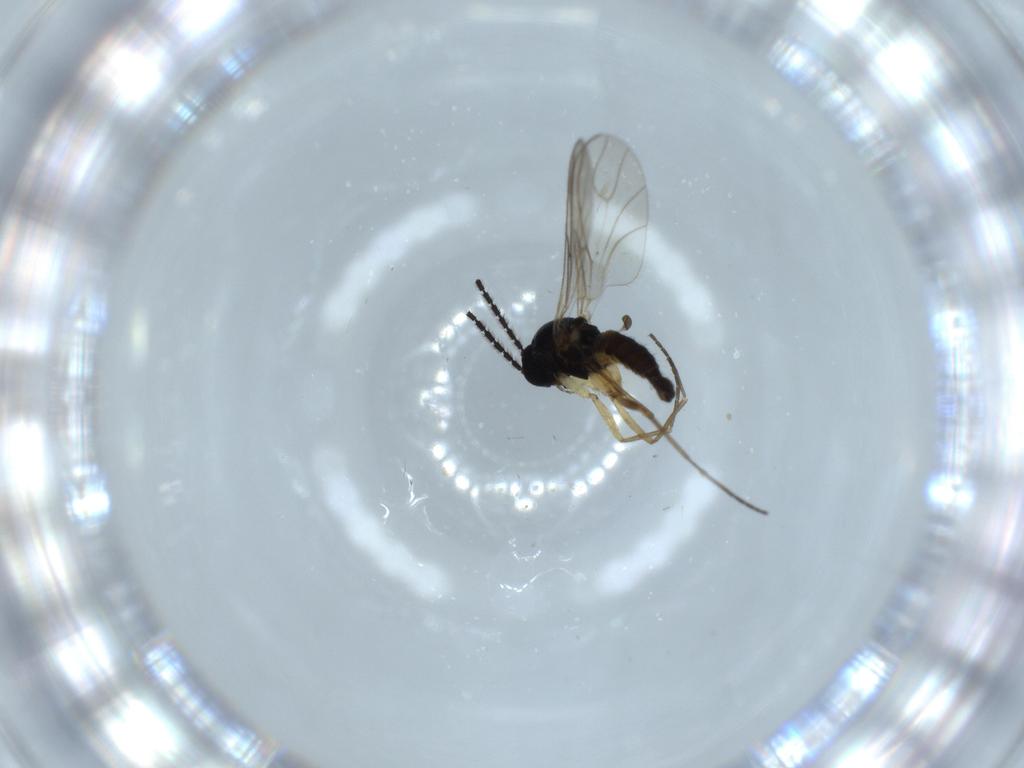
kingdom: Animalia
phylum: Arthropoda
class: Insecta
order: Diptera
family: Sciaridae
